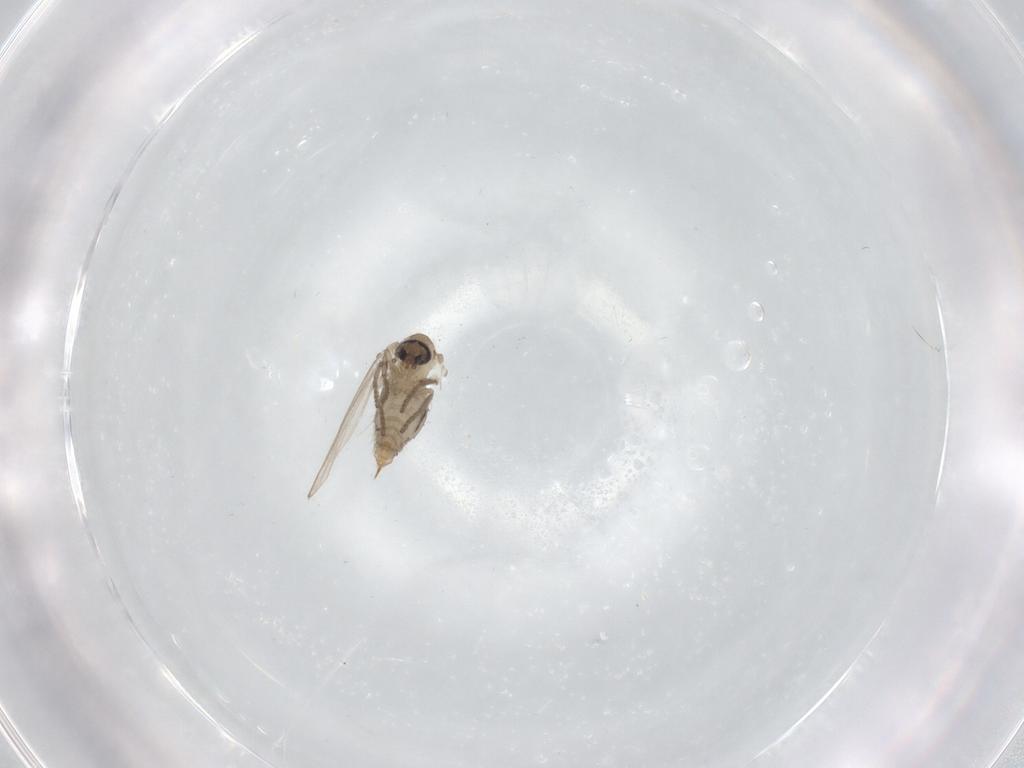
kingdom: Animalia
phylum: Arthropoda
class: Insecta
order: Diptera
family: Psychodidae
